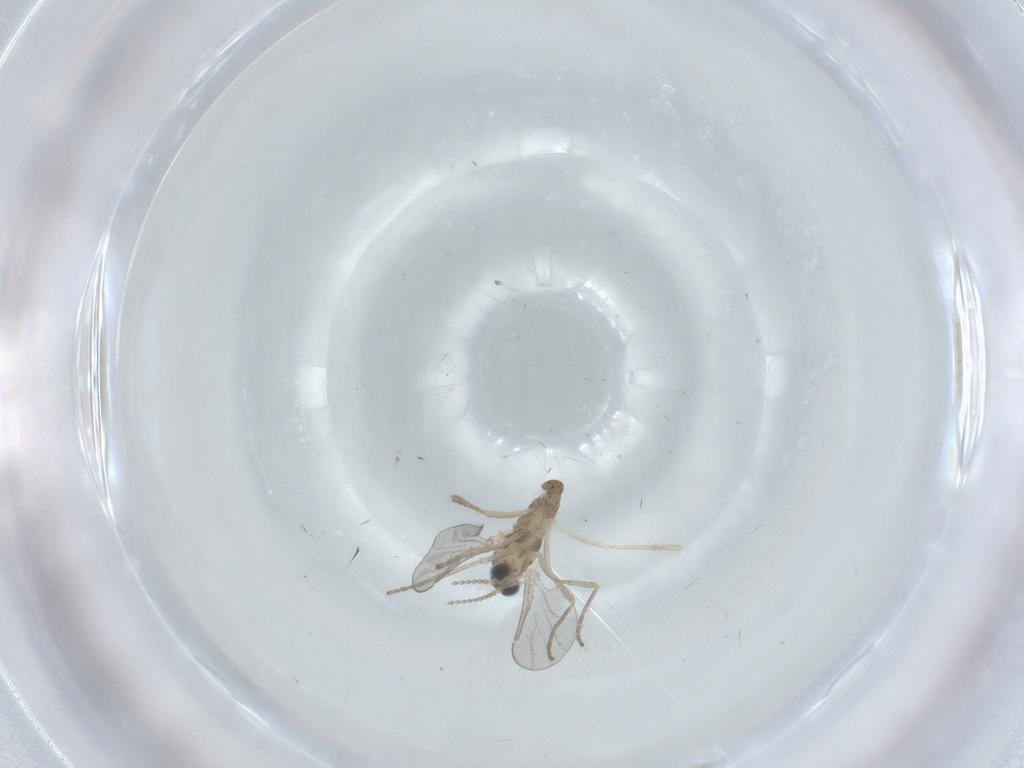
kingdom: Animalia
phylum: Arthropoda
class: Insecta
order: Diptera
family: Cecidomyiidae
